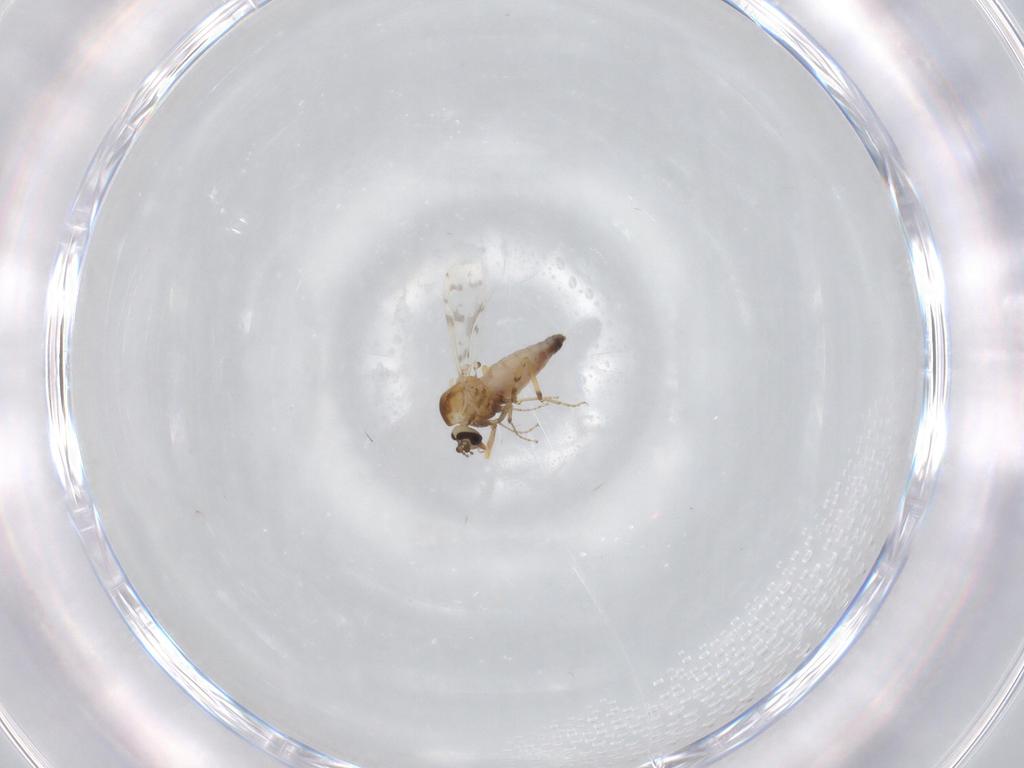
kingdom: Animalia
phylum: Arthropoda
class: Insecta
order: Diptera
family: Ceratopogonidae
